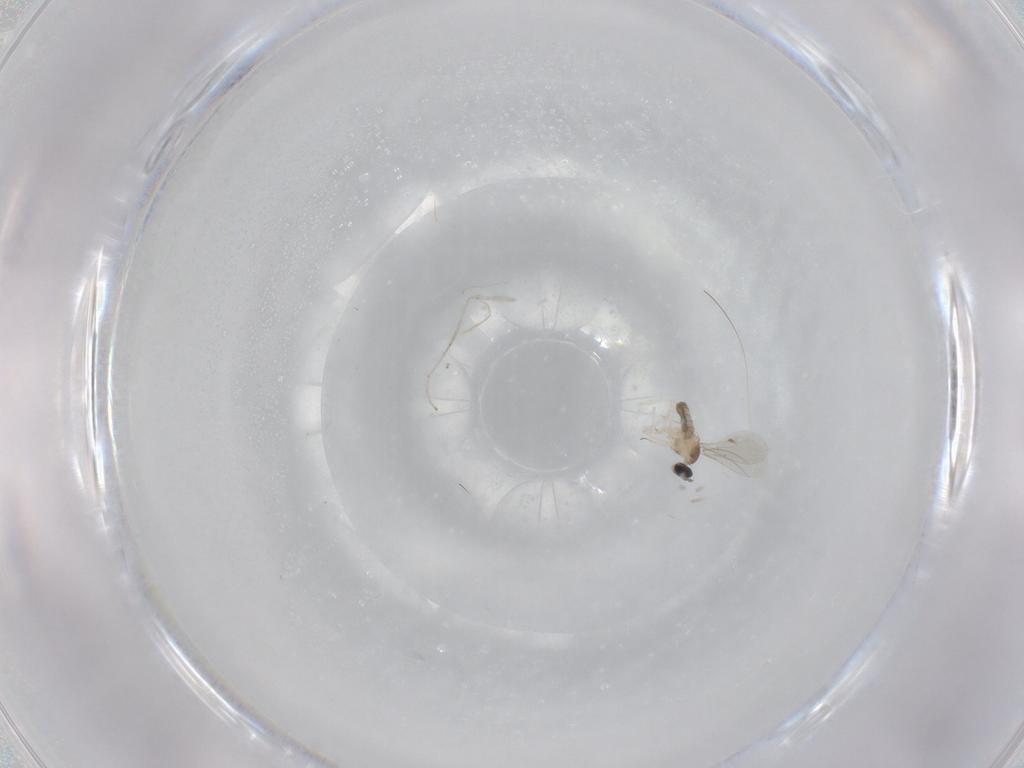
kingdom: Animalia
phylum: Arthropoda
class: Insecta
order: Diptera
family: Cecidomyiidae
